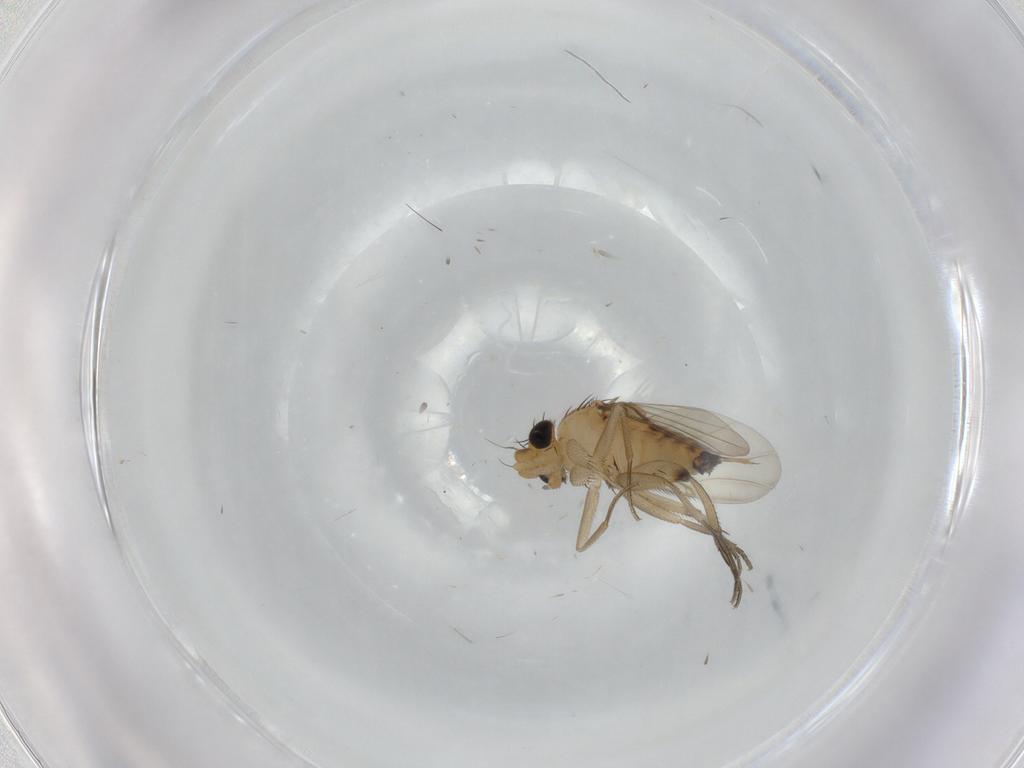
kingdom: Animalia
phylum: Arthropoda
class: Insecta
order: Diptera
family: Phoridae
